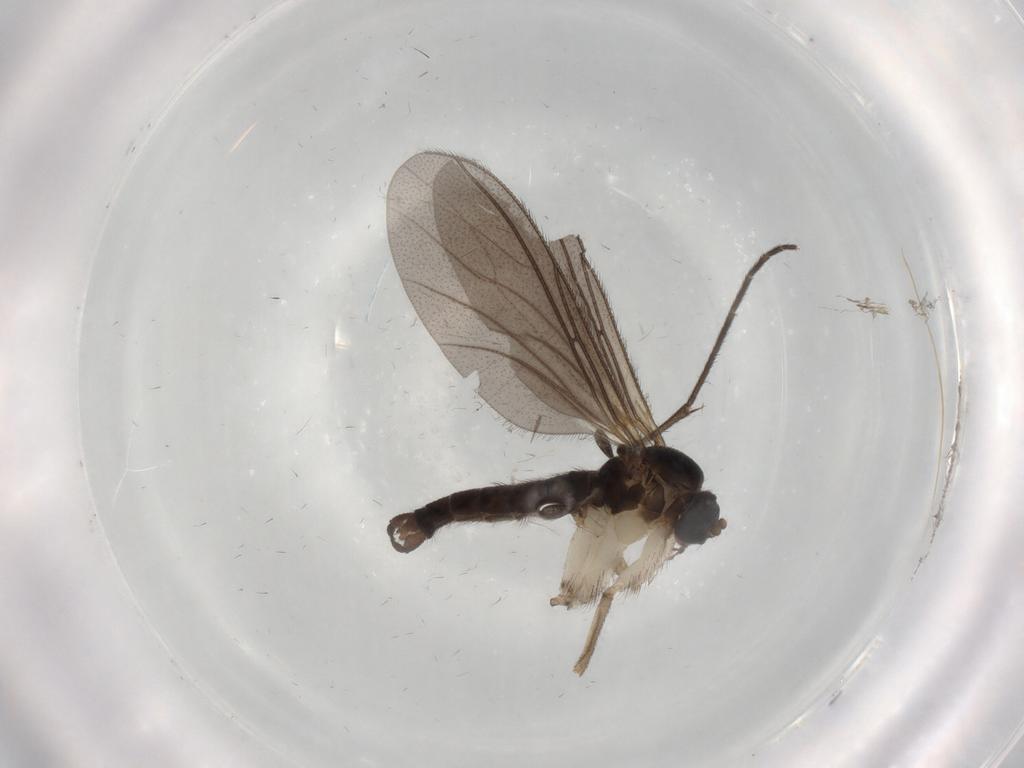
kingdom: Animalia
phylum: Arthropoda
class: Insecta
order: Diptera
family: Sciaridae
